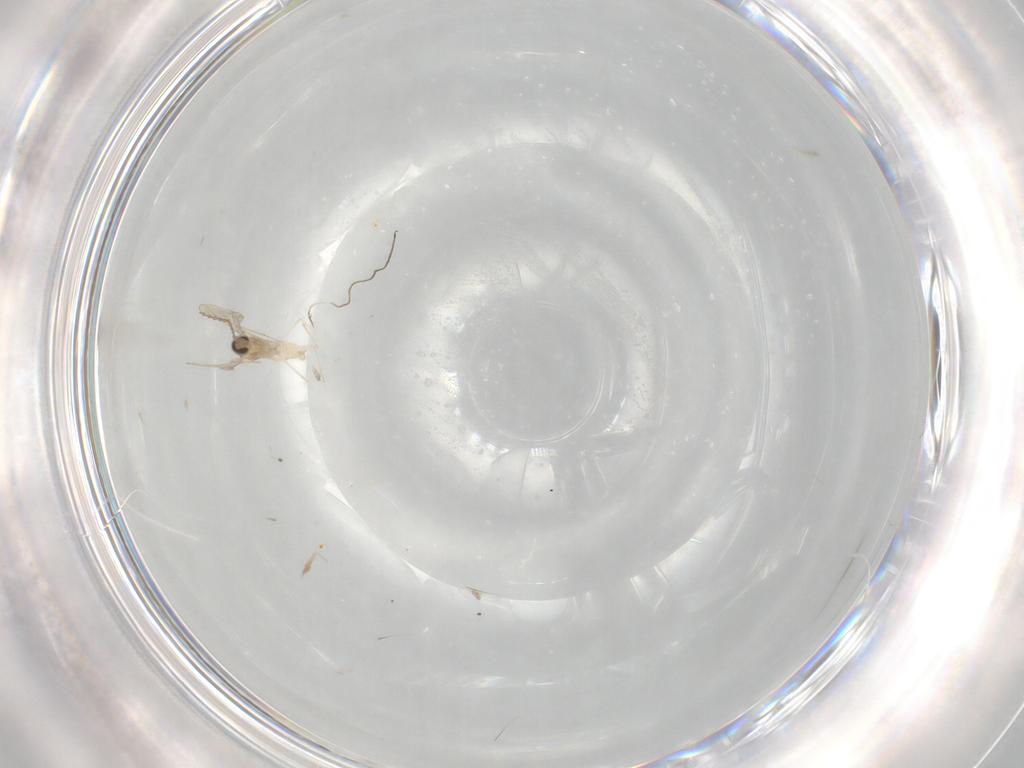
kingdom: Animalia
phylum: Arthropoda
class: Insecta
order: Diptera
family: Cecidomyiidae
